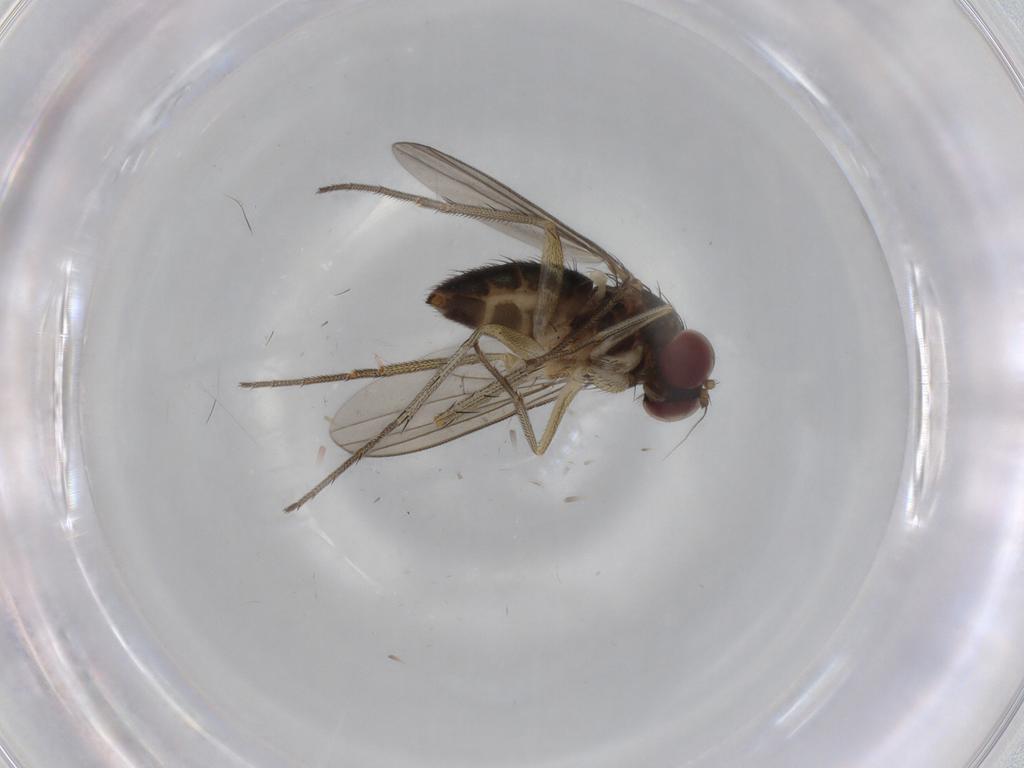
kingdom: Animalia
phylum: Arthropoda
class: Insecta
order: Diptera
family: Dolichopodidae
